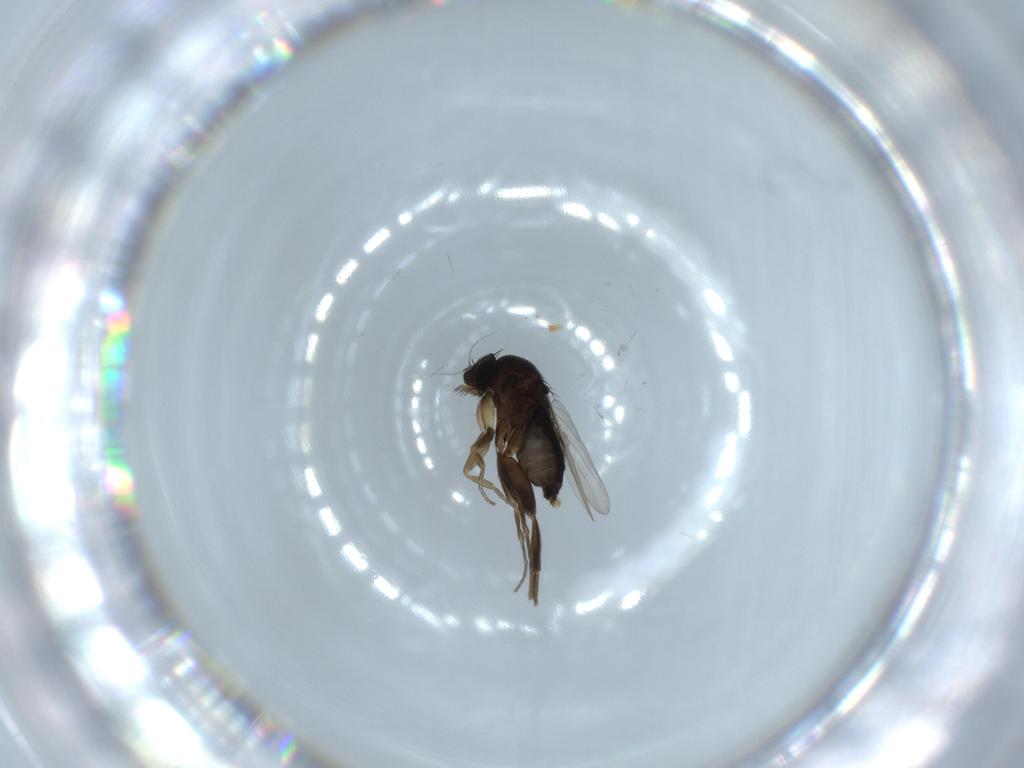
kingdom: Animalia
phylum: Arthropoda
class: Insecta
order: Diptera
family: Phoridae
